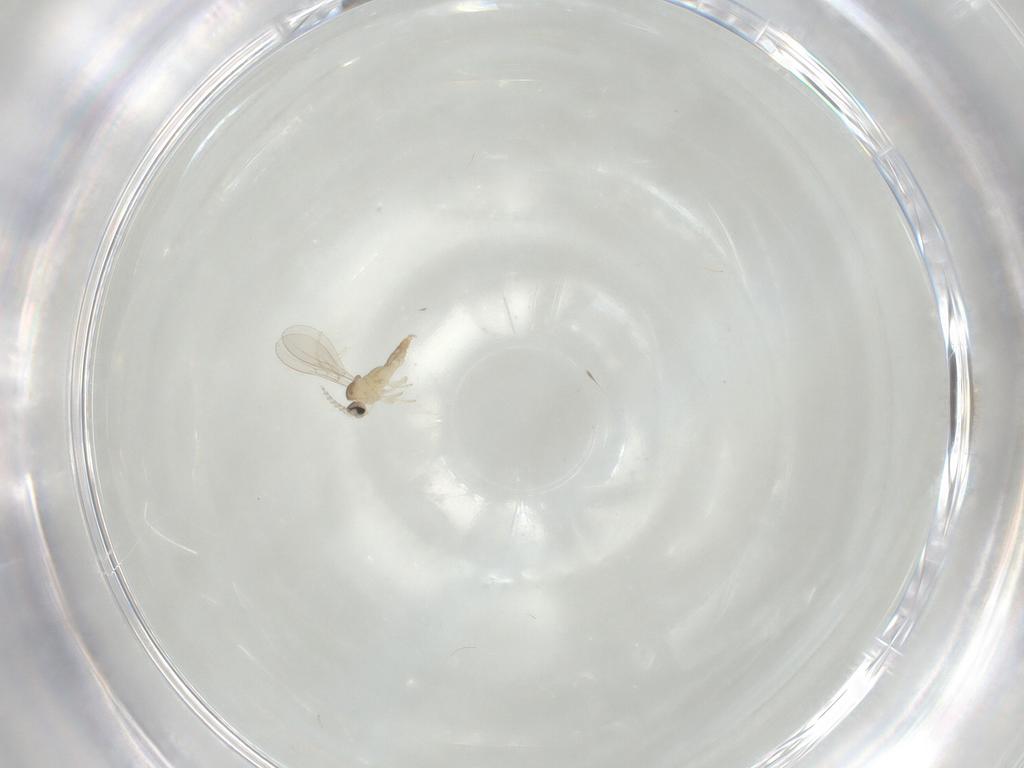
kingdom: Animalia
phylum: Arthropoda
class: Insecta
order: Diptera
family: Cecidomyiidae
